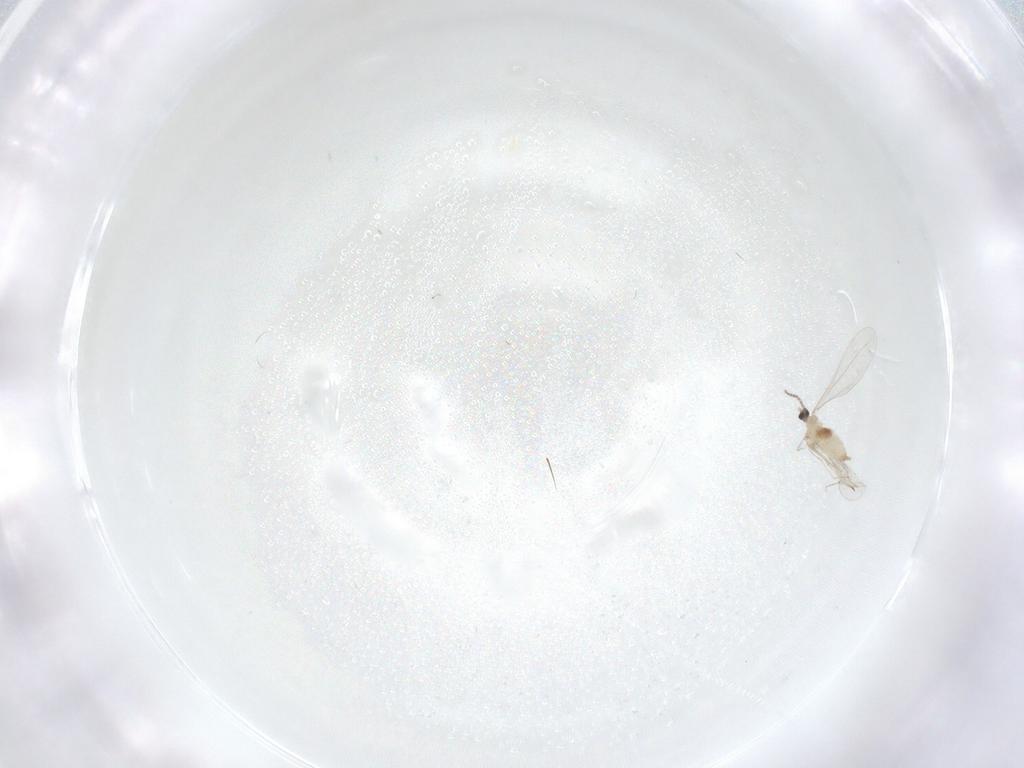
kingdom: Animalia
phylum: Arthropoda
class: Insecta
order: Diptera
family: Cecidomyiidae
